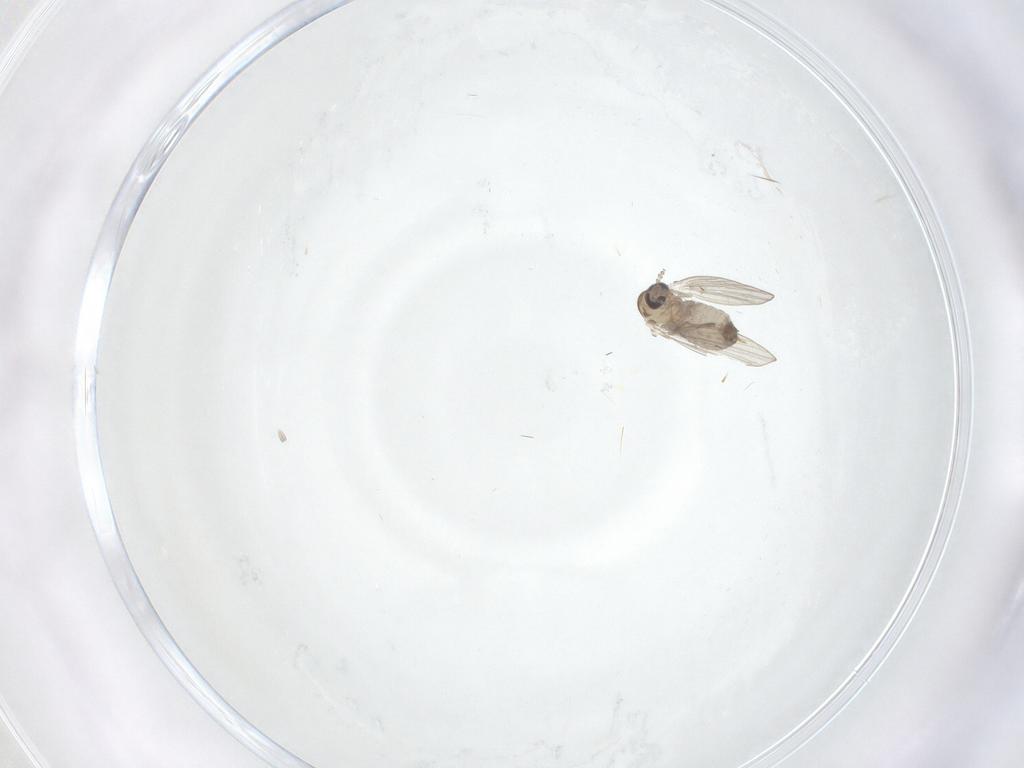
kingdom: Animalia
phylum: Arthropoda
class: Insecta
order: Diptera
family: Psychodidae
